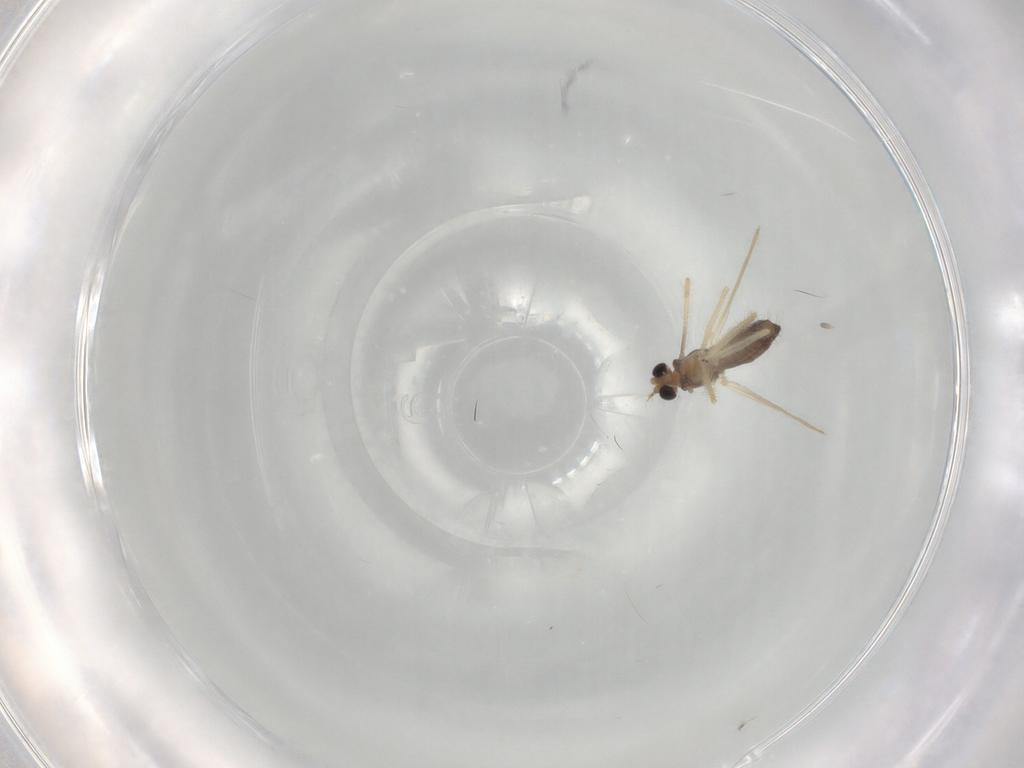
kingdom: Animalia
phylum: Arthropoda
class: Insecta
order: Diptera
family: Chironomidae
